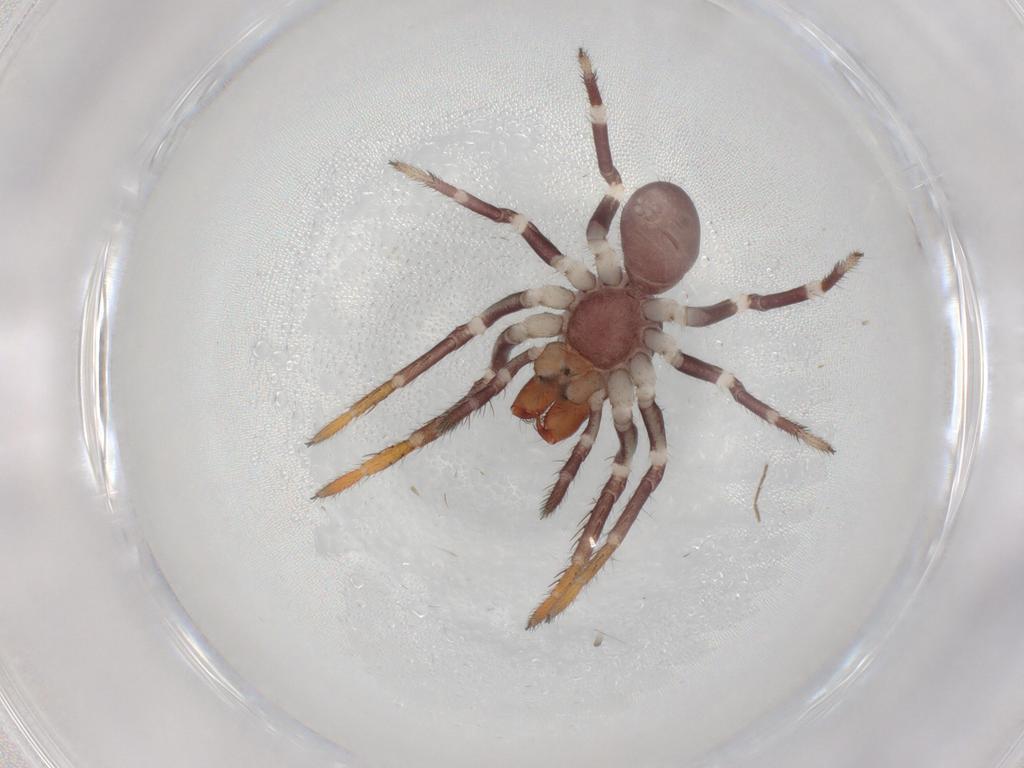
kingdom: Animalia
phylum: Arthropoda
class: Arachnida
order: Araneae
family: Corinnidae
